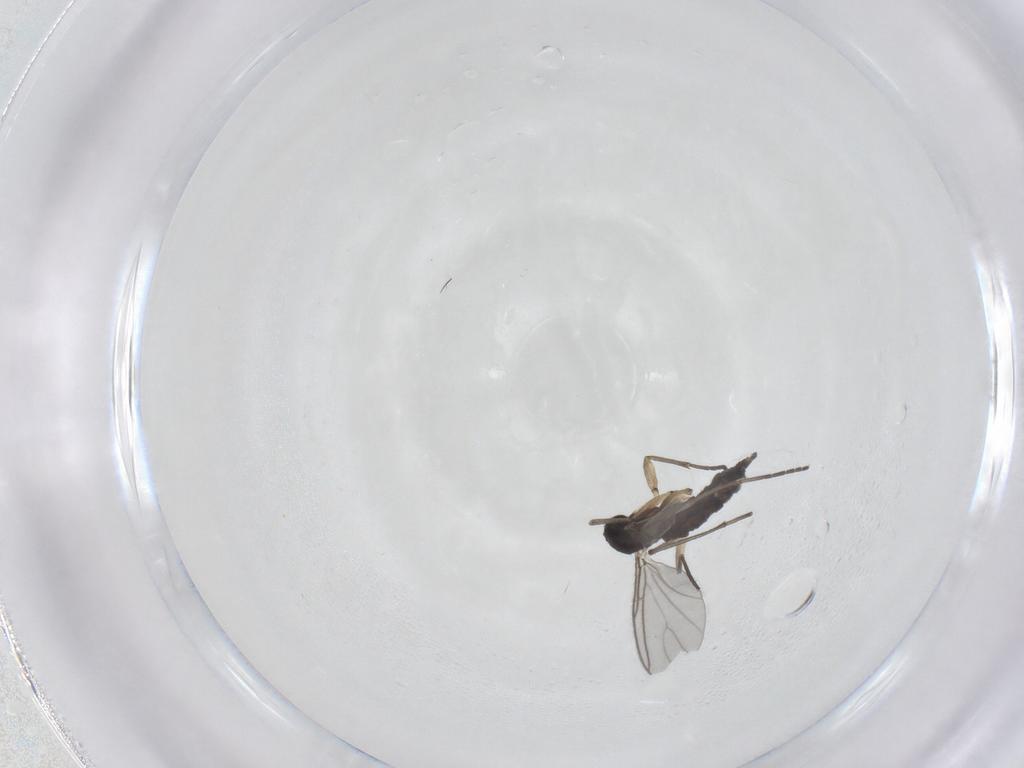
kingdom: Animalia
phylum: Arthropoda
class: Insecta
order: Diptera
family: Sciaridae
